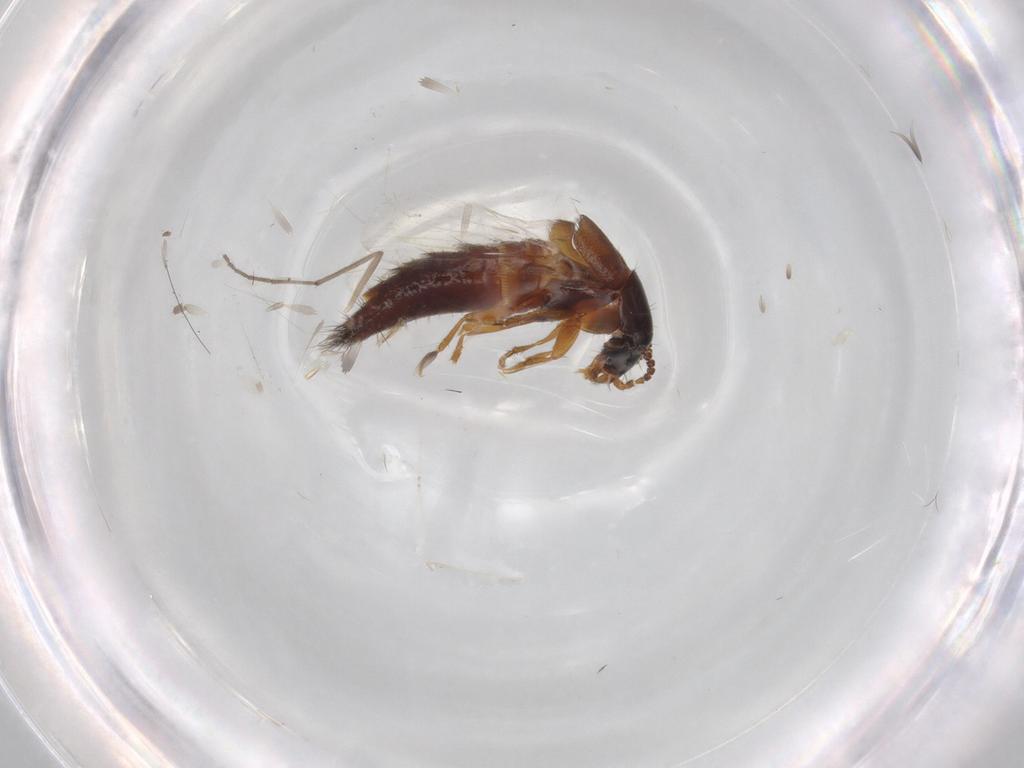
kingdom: Animalia
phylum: Arthropoda
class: Insecta
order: Coleoptera
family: Staphylinidae
